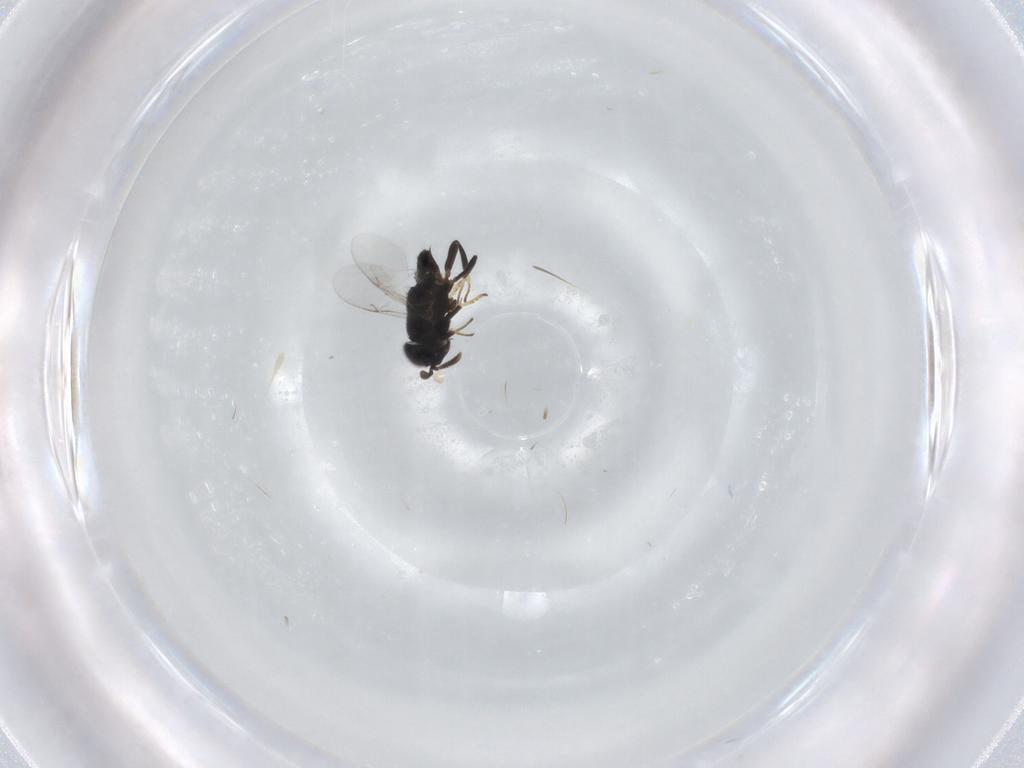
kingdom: Animalia
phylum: Arthropoda
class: Insecta
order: Hymenoptera
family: Encyrtidae
